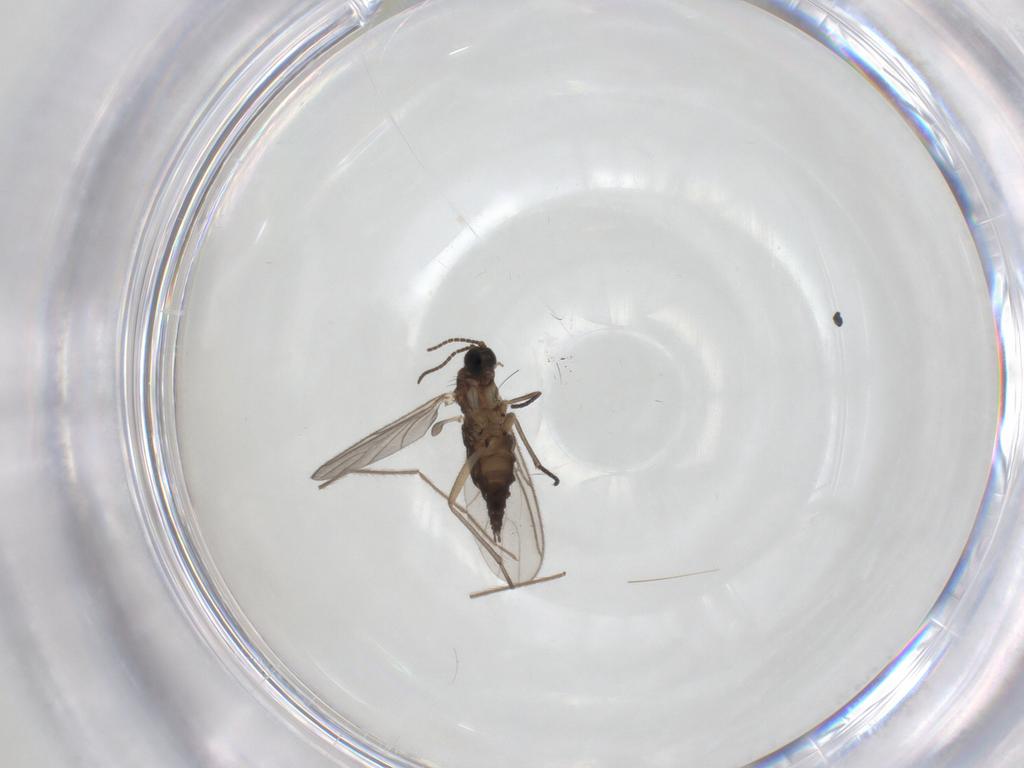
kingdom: Animalia
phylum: Arthropoda
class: Insecta
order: Diptera
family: Sciaridae
